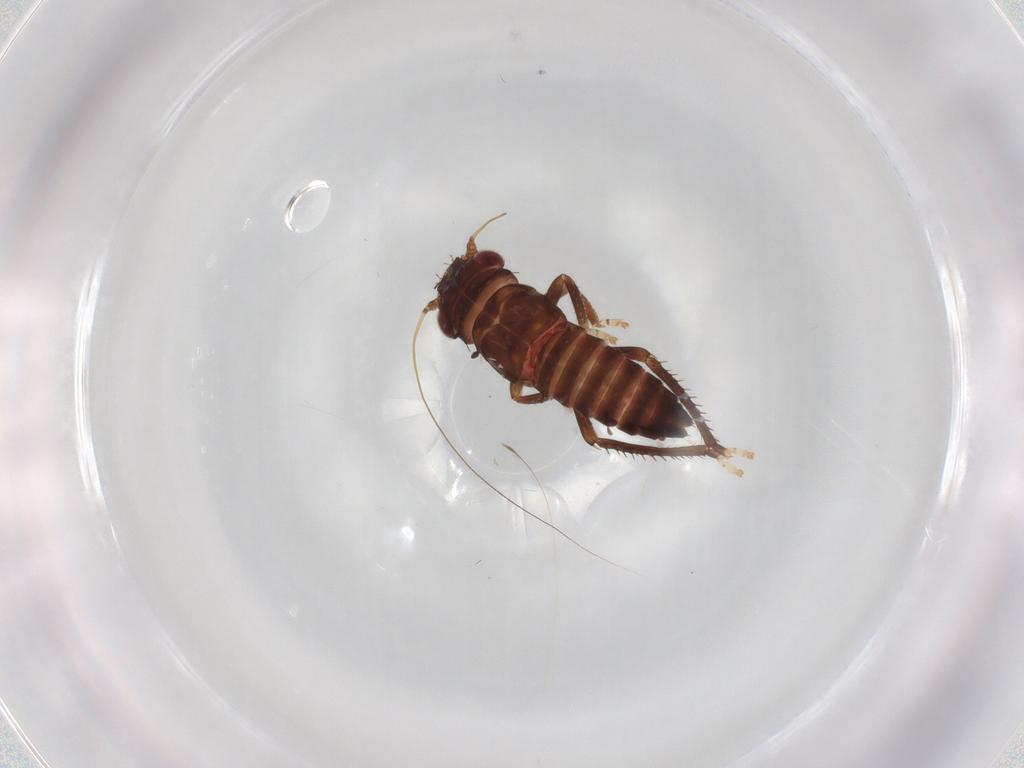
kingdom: Animalia
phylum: Arthropoda
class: Insecta
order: Hemiptera
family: Cicadellidae
